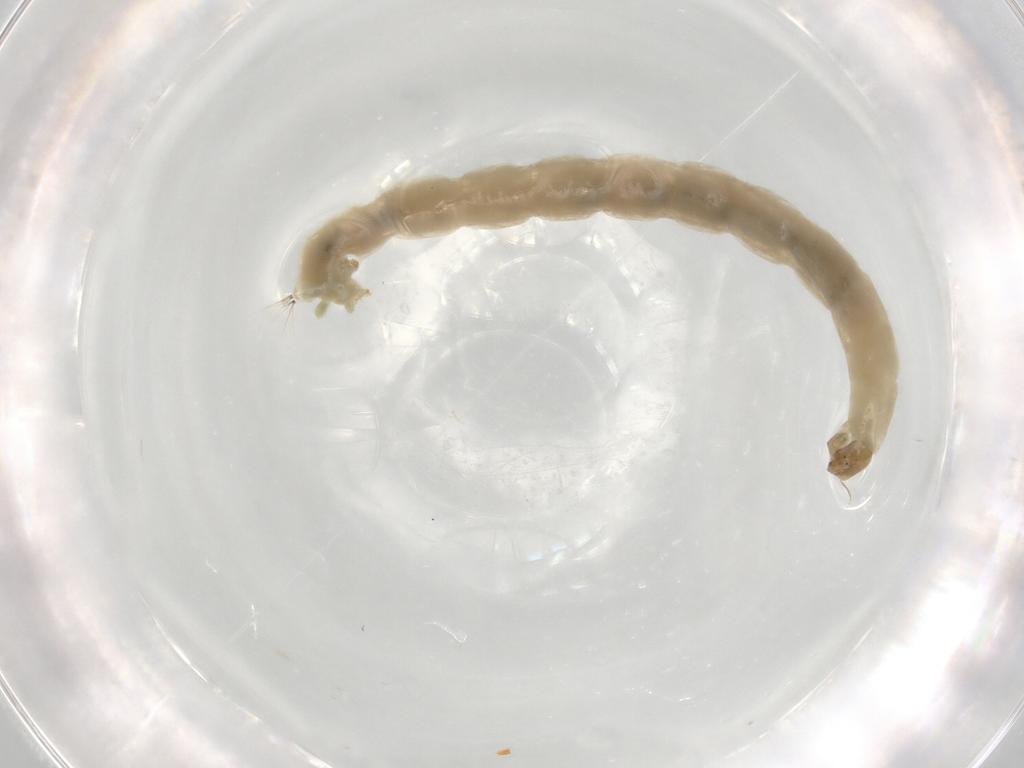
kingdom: Animalia
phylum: Arthropoda
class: Insecta
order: Diptera
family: Chironomidae
